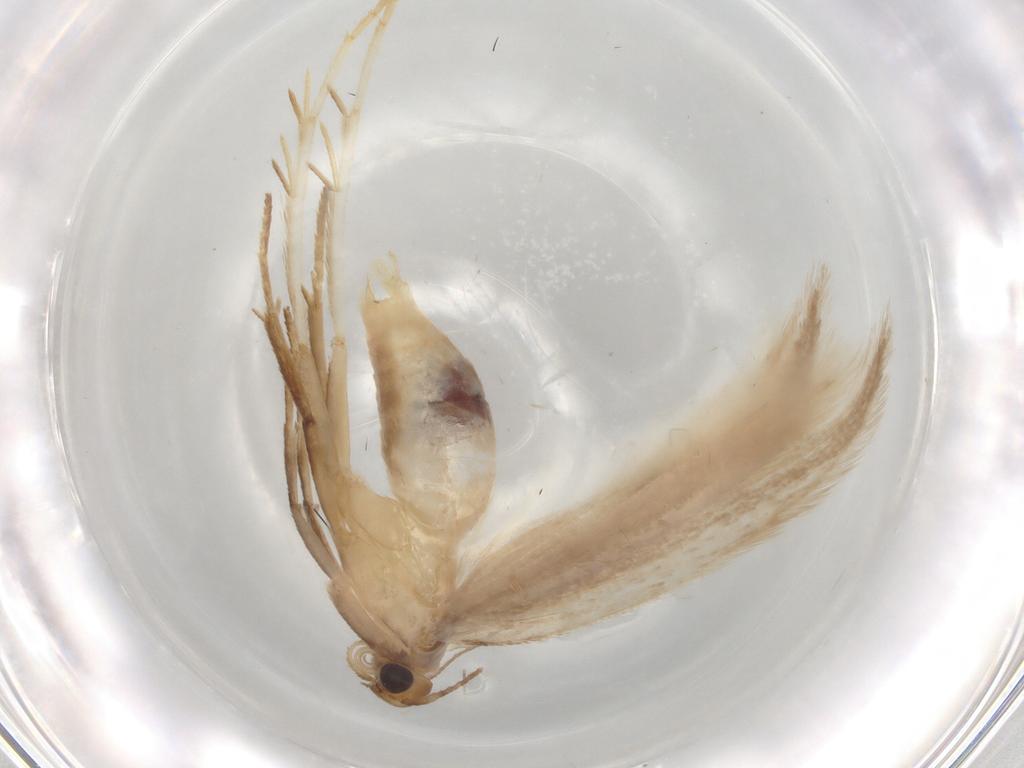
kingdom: Animalia
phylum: Arthropoda
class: Insecta
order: Lepidoptera
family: Gelechiidae
